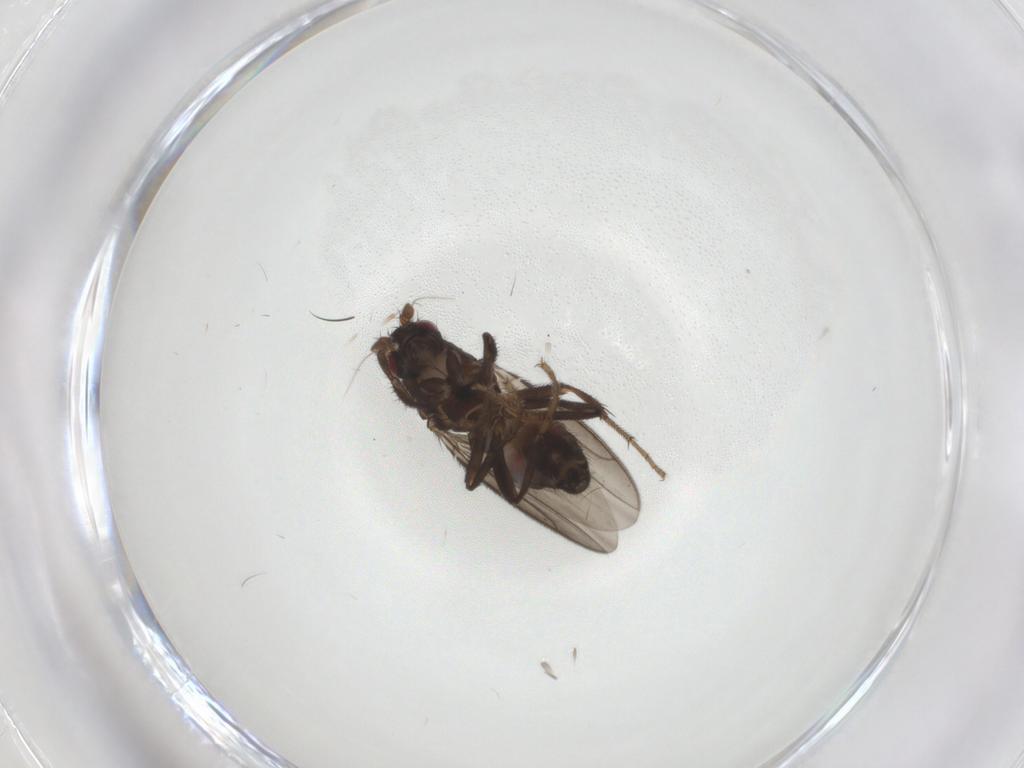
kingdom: Animalia
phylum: Arthropoda
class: Insecta
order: Diptera
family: Sphaeroceridae
